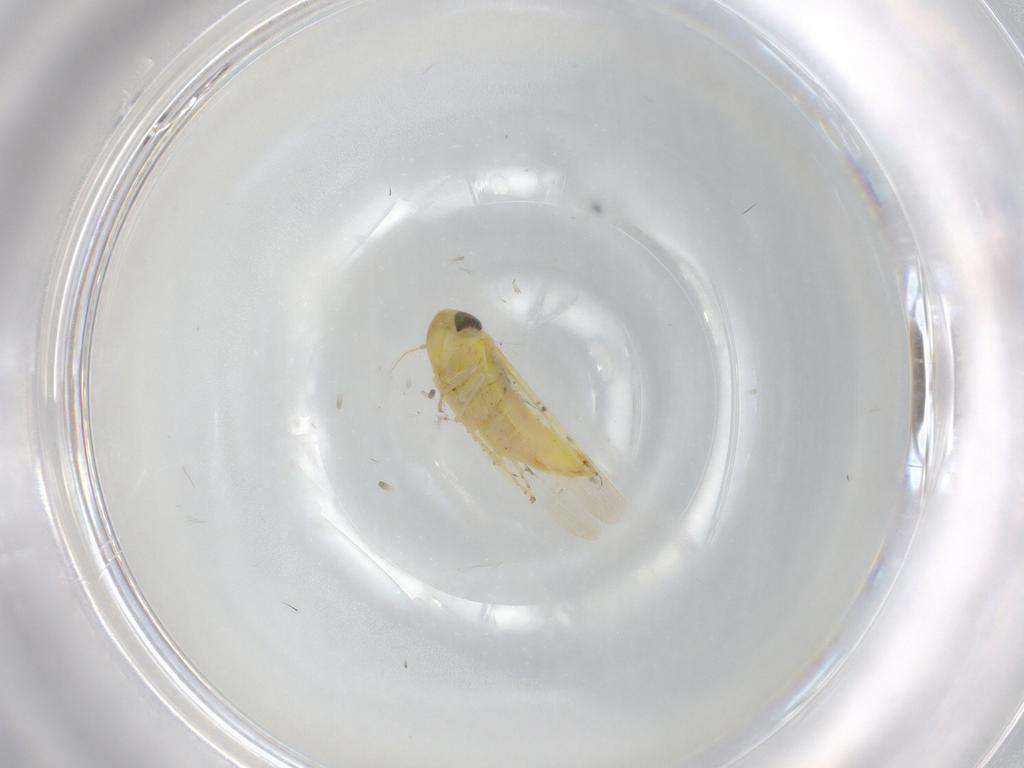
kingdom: Animalia
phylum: Arthropoda
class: Insecta
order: Hemiptera
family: Cicadellidae
